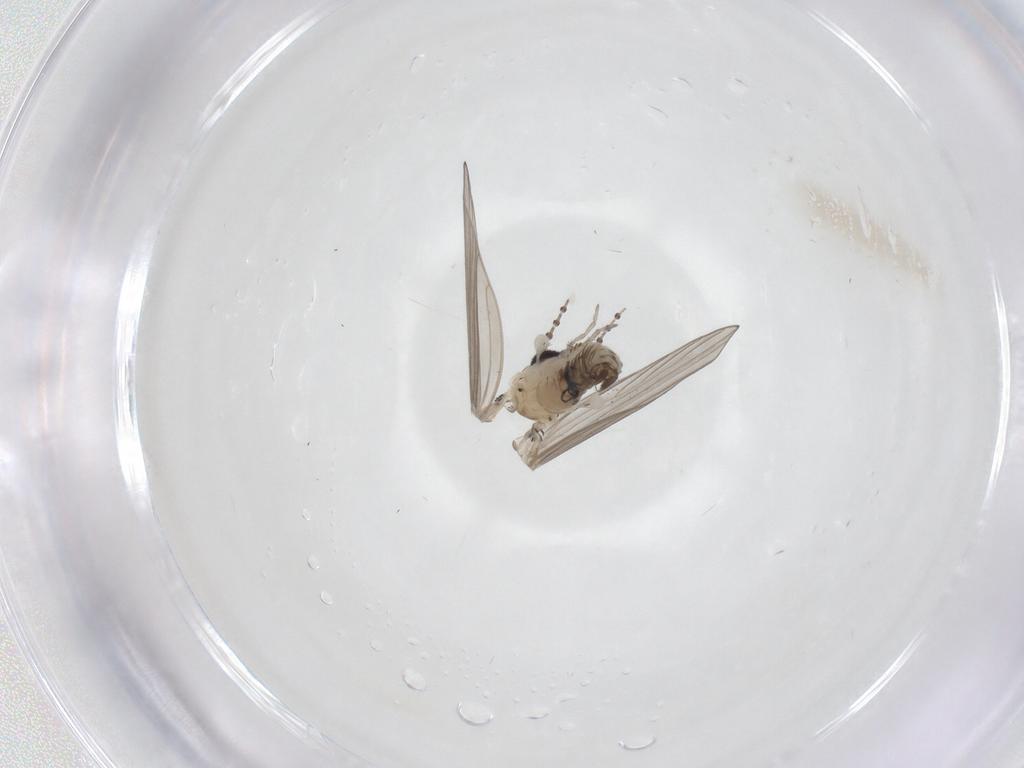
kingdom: Animalia
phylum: Arthropoda
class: Insecta
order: Diptera
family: Psychodidae
